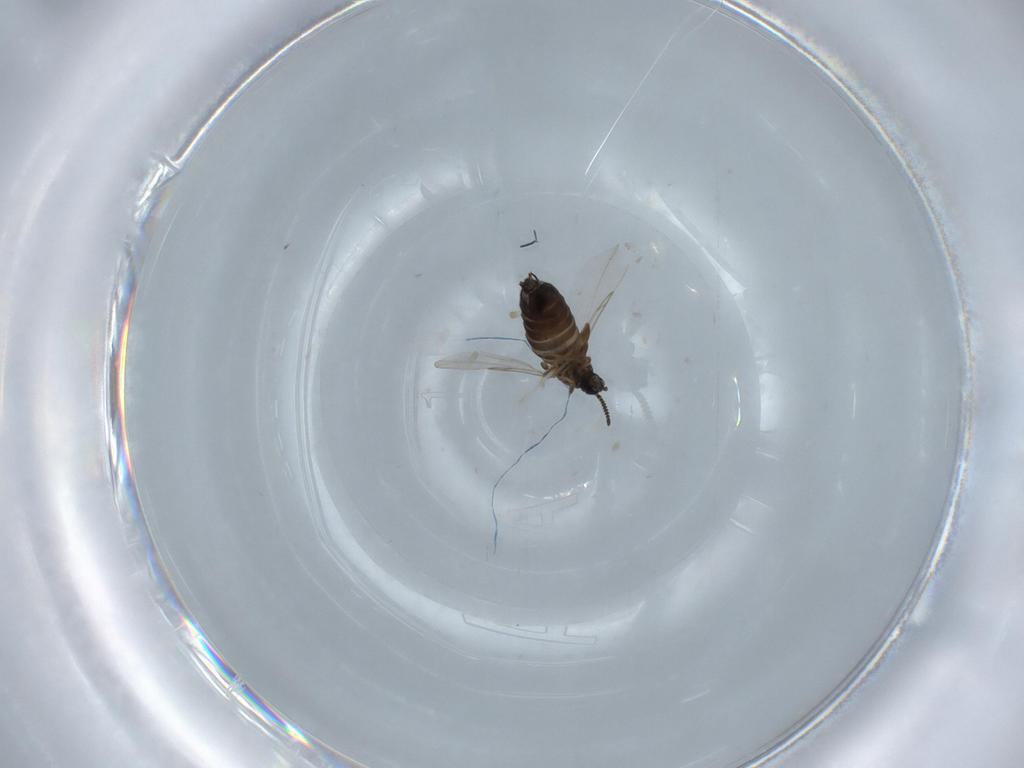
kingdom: Animalia
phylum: Arthropoda
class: Insecta
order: Diptera
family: Scatopsidae
